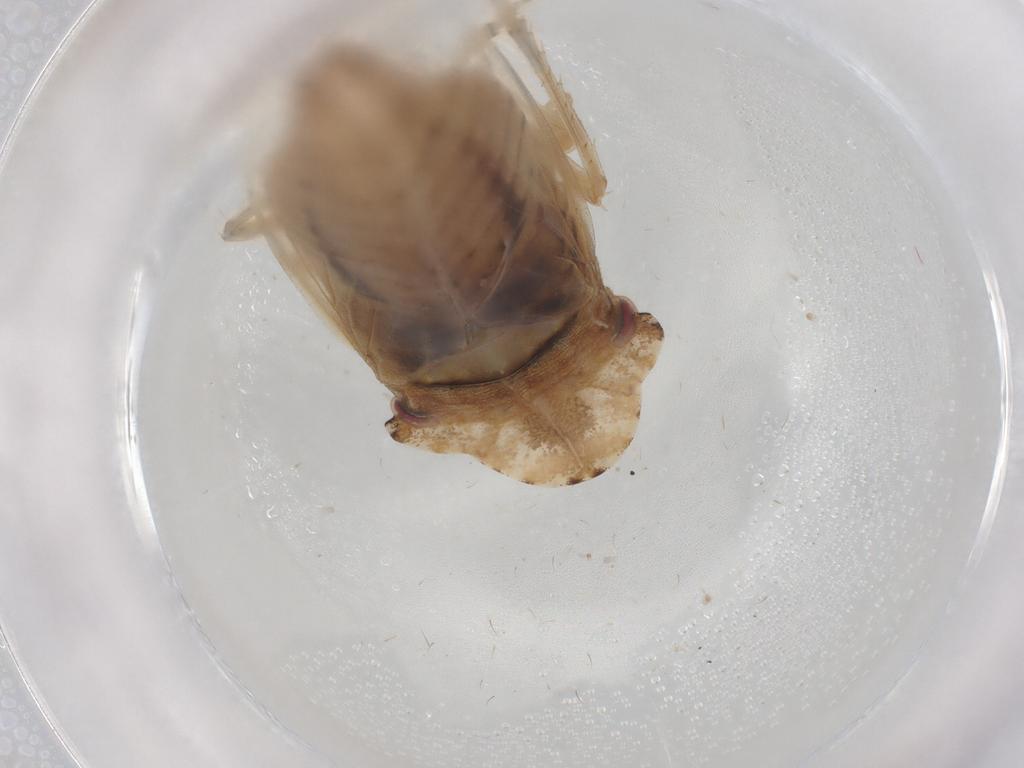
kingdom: Animalia
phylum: Arthropoda
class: Insecta
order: Hemiptera
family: Cicadellidae
